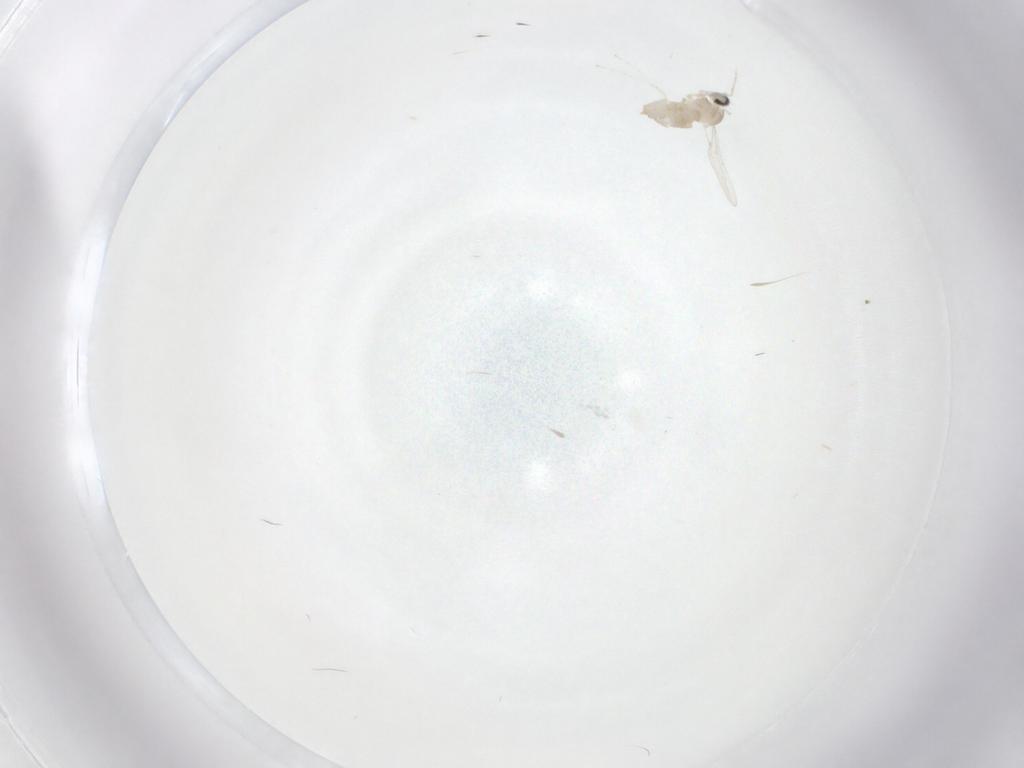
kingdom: Animalia
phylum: Arthropoda
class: Insecta
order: Diptera
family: Cecidomyiidae
